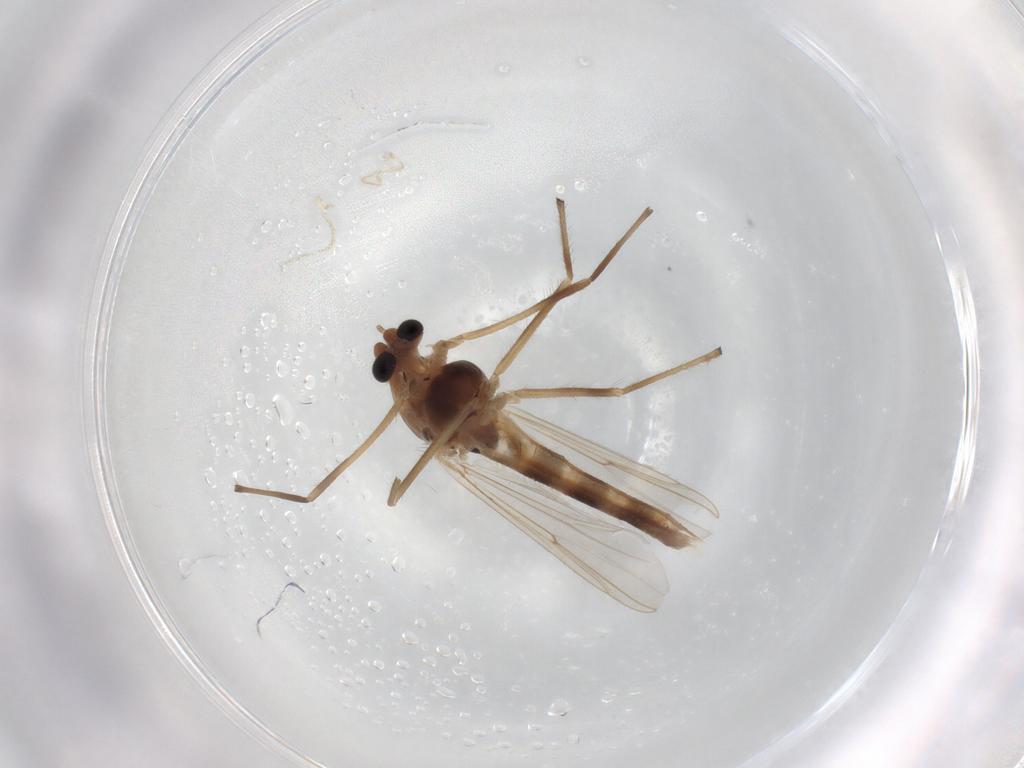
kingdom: Animalia
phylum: Arthropoda
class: Insecta
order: Diptera
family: Chironomidae
